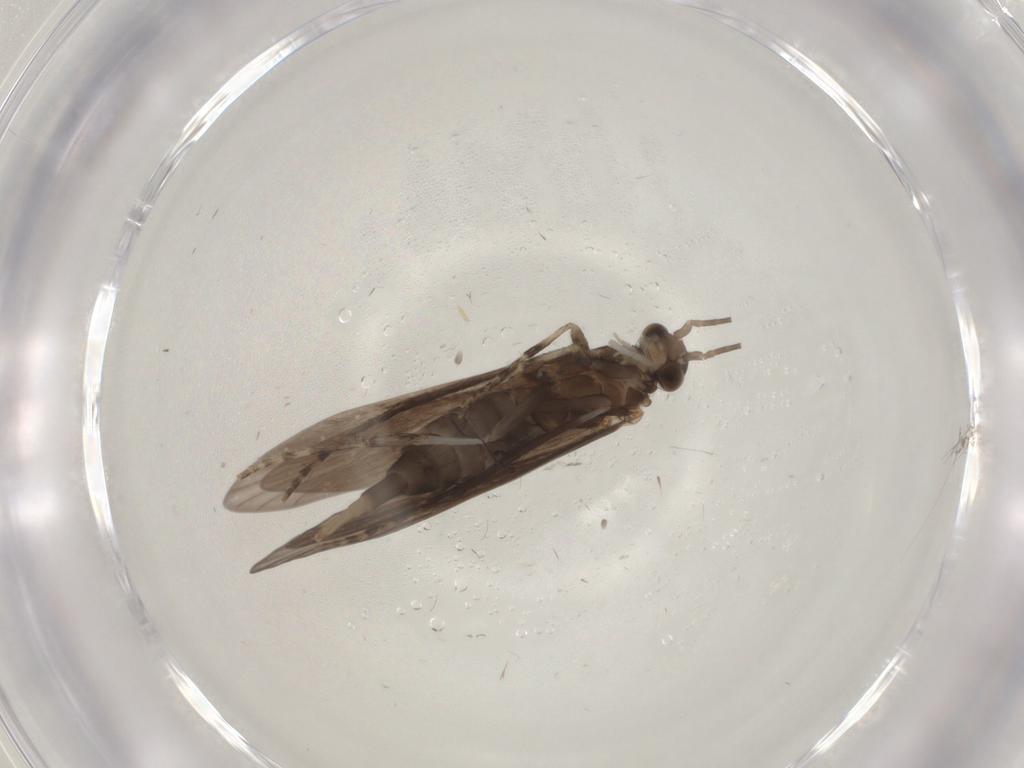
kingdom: Animalia
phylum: Arthropoda
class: Insecta
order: Trichoptera
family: Xiphocentronidae
